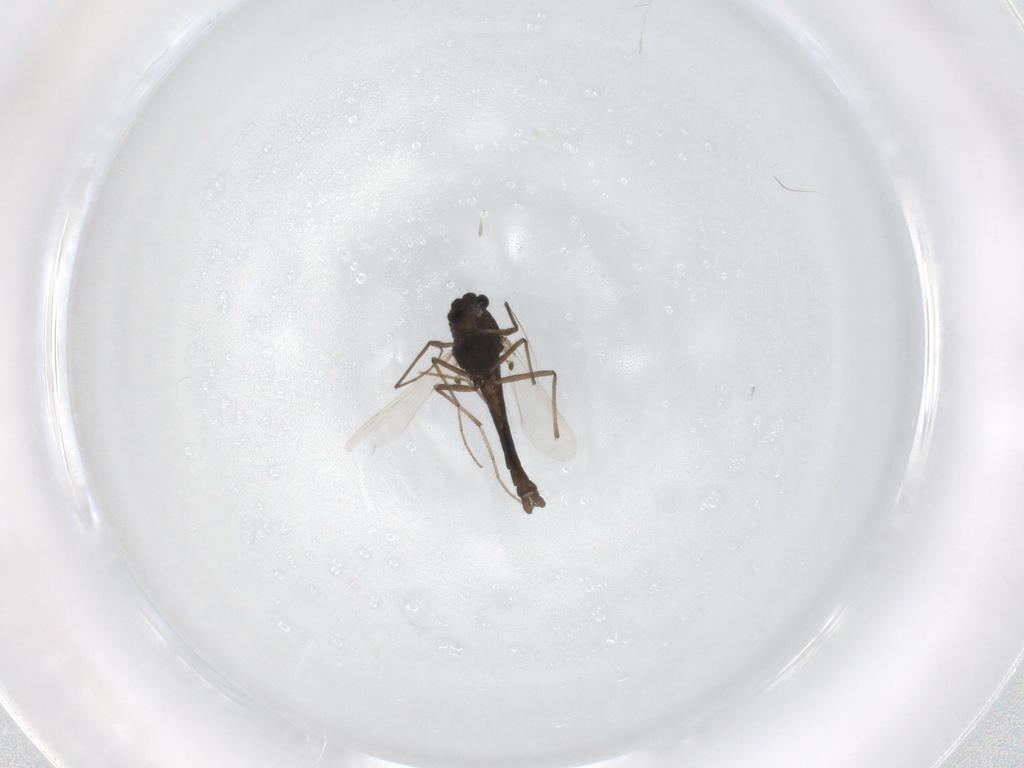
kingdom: Animalia
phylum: Arthropoda
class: Insecta
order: Diptera
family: Chironomidae
